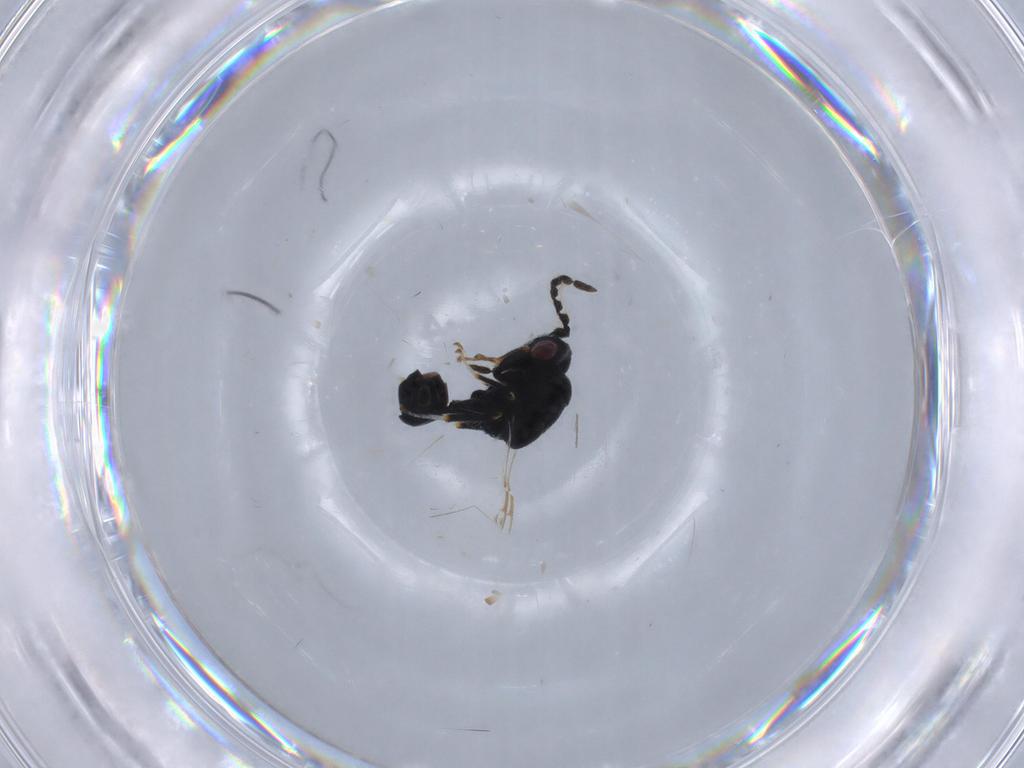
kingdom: Animalia
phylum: Arthropoda
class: Insecta
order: Hymenoptera
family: Eurytomidae
